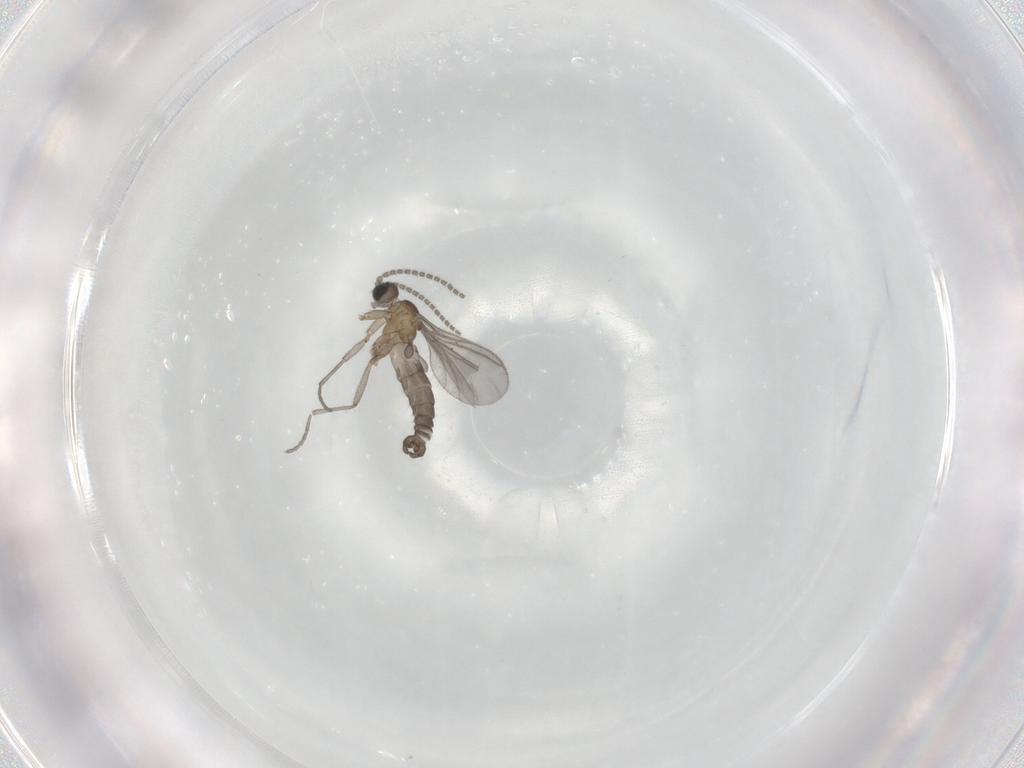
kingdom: Animalia
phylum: Arthropoda
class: Insecta
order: Diptera
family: Sciaridae
